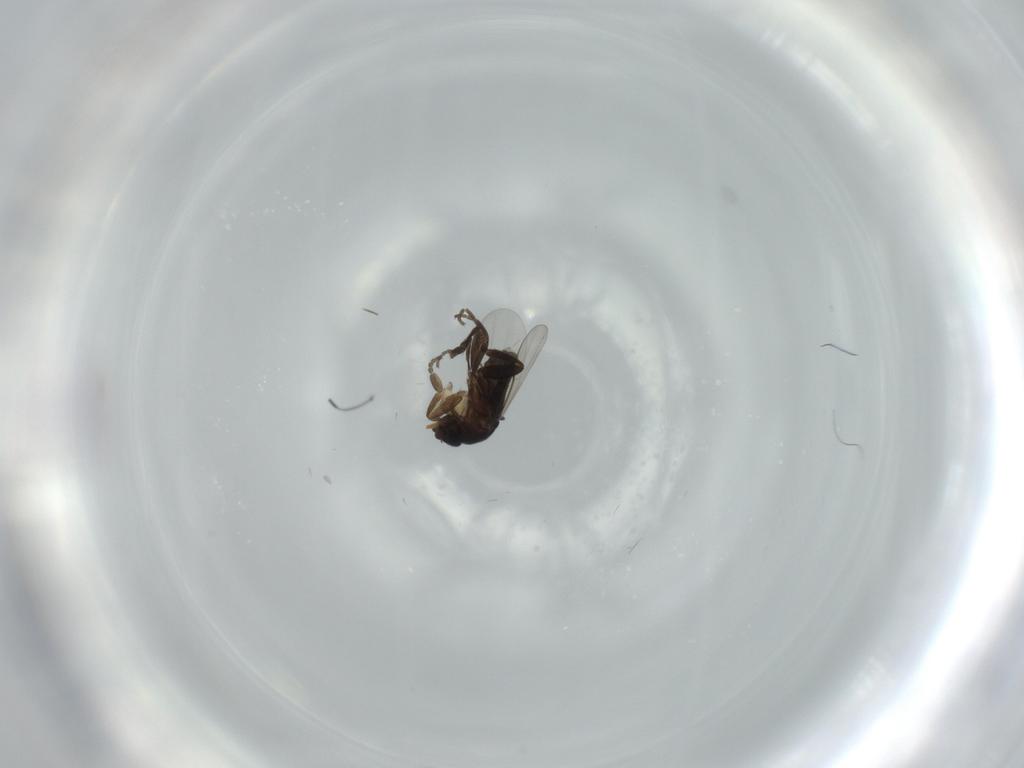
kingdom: Animalia
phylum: Arthropoda
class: Insecta
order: Diptera
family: Phoridae
